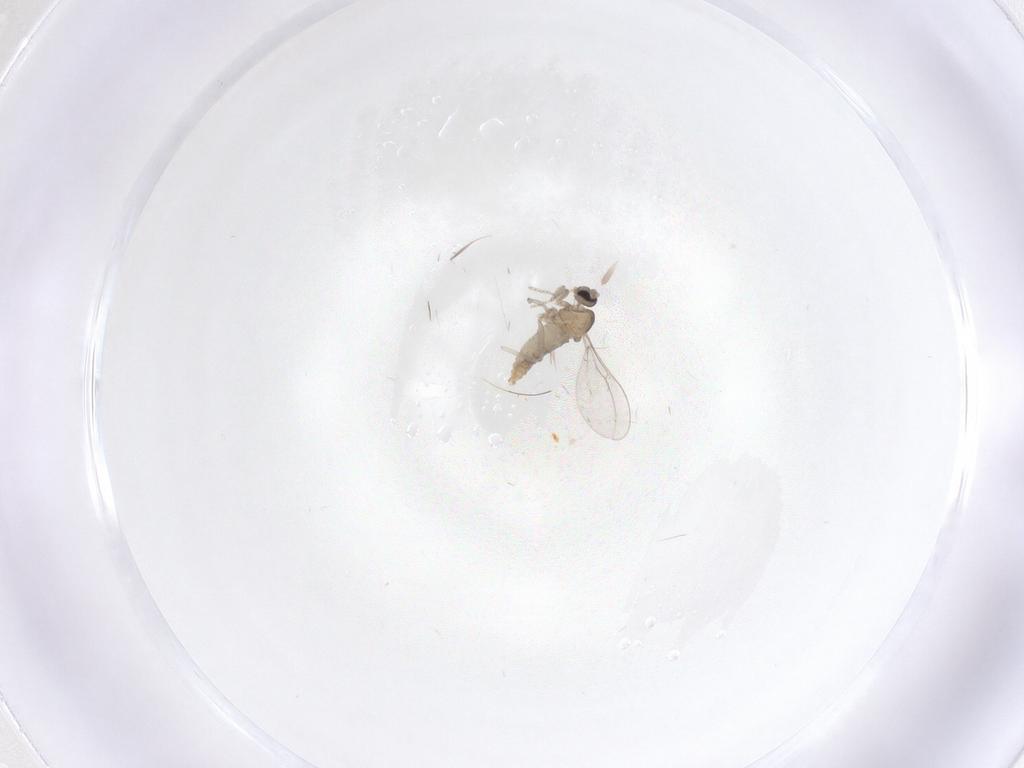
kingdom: Animalia
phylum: Arthropoda
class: Insecta
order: Diptera
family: Cecidomyiidae
